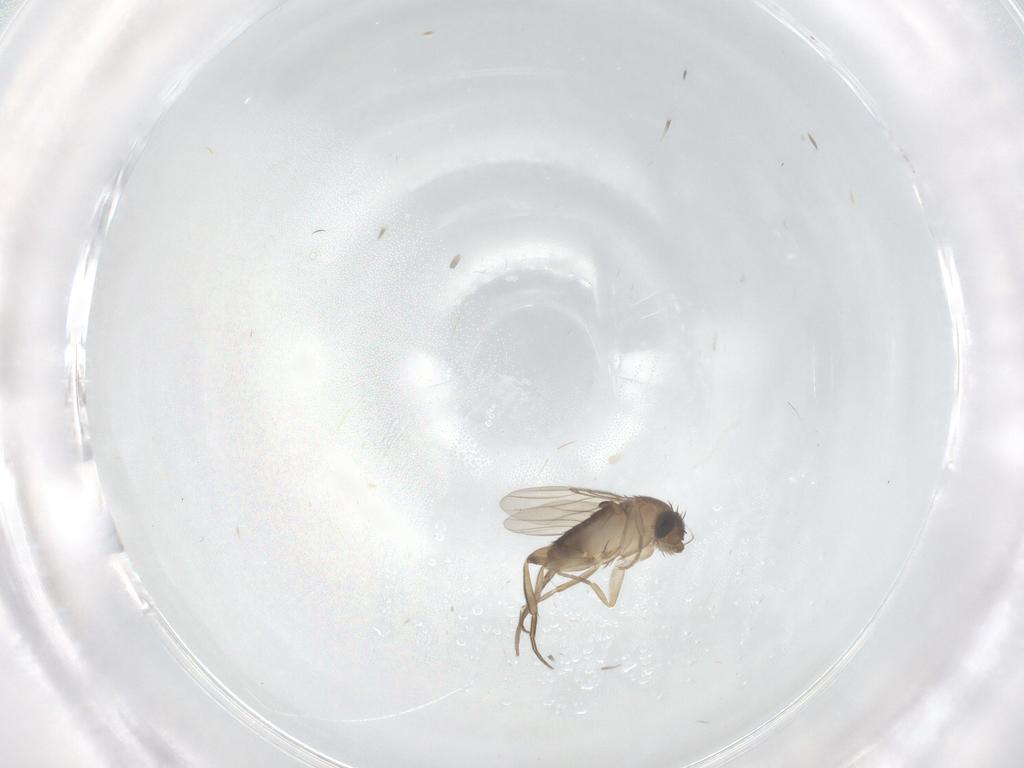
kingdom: Animalia
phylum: Arthropoda
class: Insecta
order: Diptera
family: Phoridae
